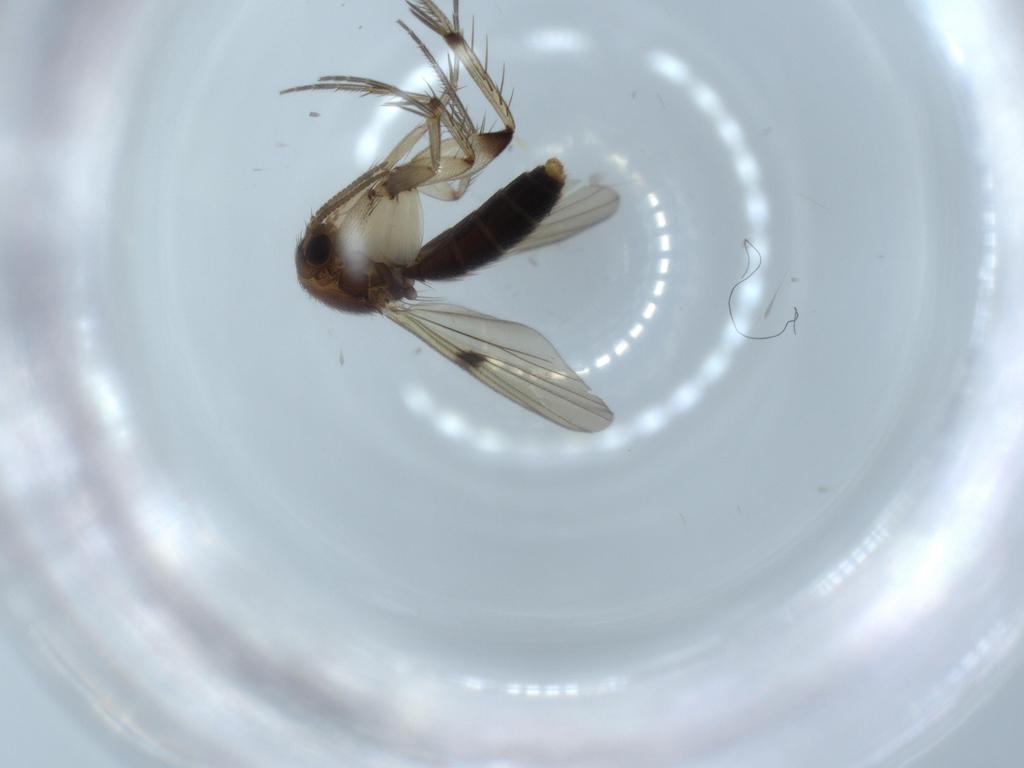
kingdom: Animalia
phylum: Arthropoda
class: Insecta
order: Diptera
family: Mycetophilidae
